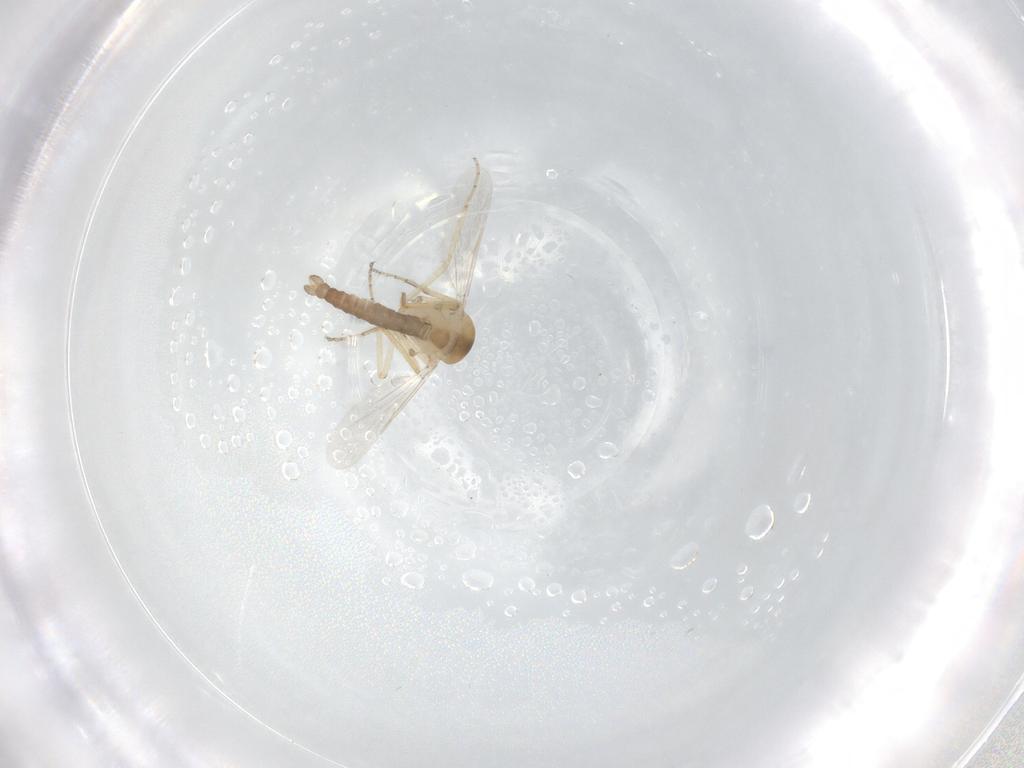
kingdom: Animalia
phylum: Arthropoda
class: Insecta
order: Diptera
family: Ceratopogonidae
